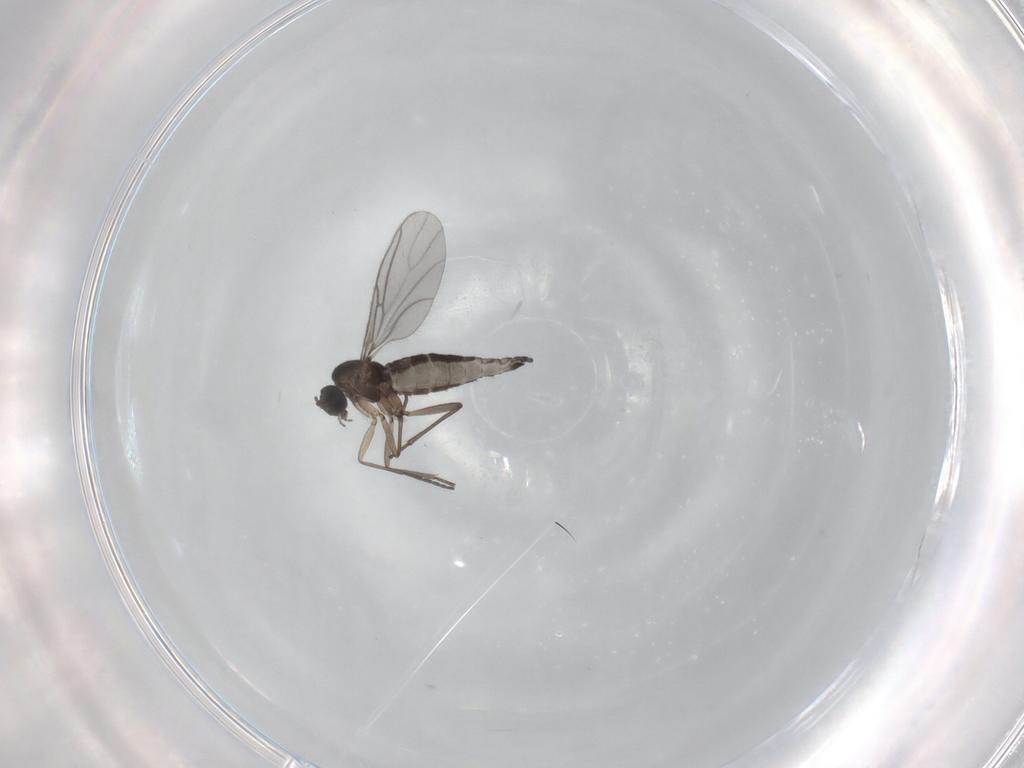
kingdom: Animalia
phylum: Arthropoda
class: Insecta
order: Diptera
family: Sciaridae
